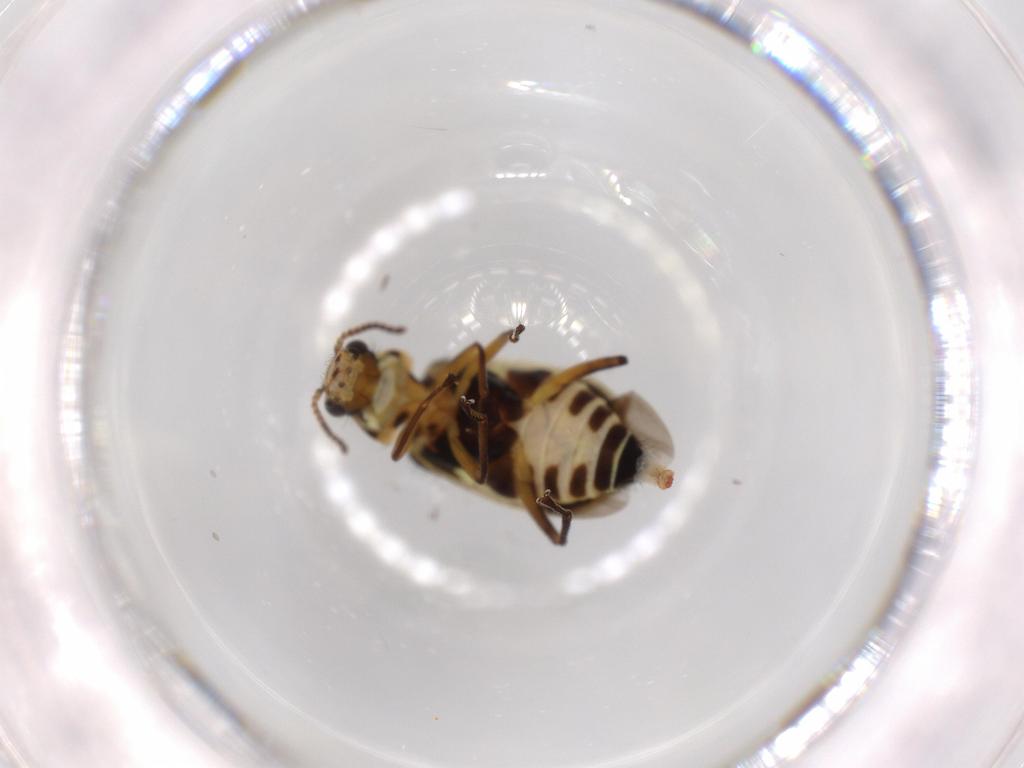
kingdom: Animalia
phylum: Arthropoda
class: Insecta
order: Coleoptera
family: Melyridae
